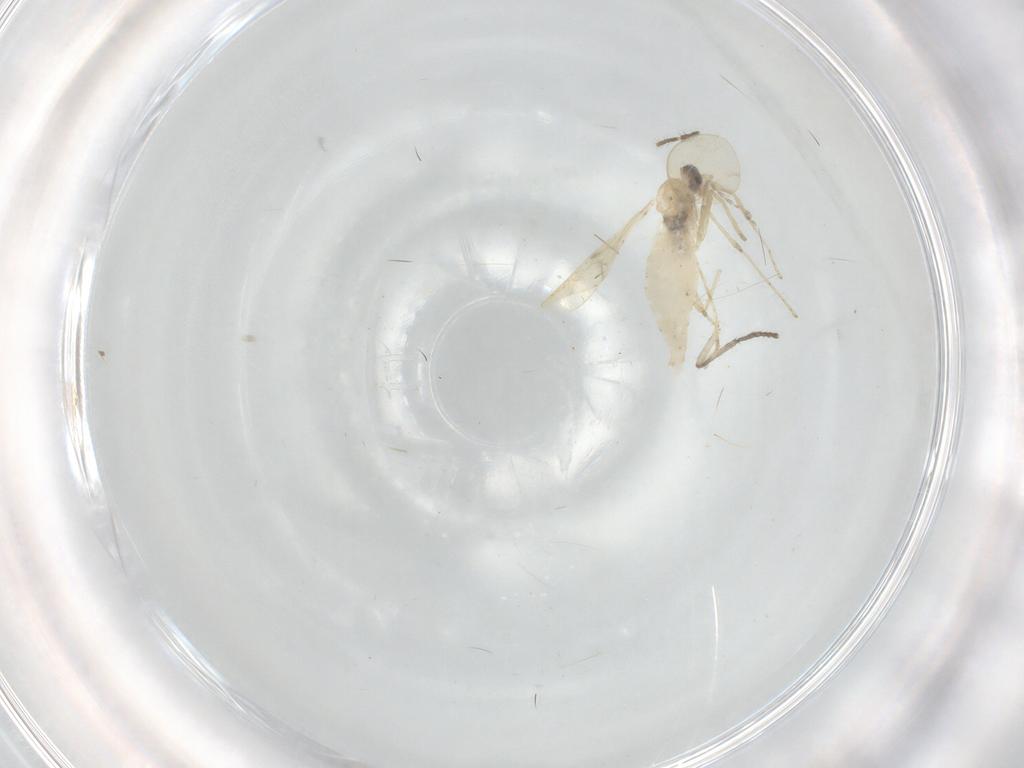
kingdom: Animalia
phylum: Arthropoda
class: Insecta
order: Diptera
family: Cecidomyiidae
